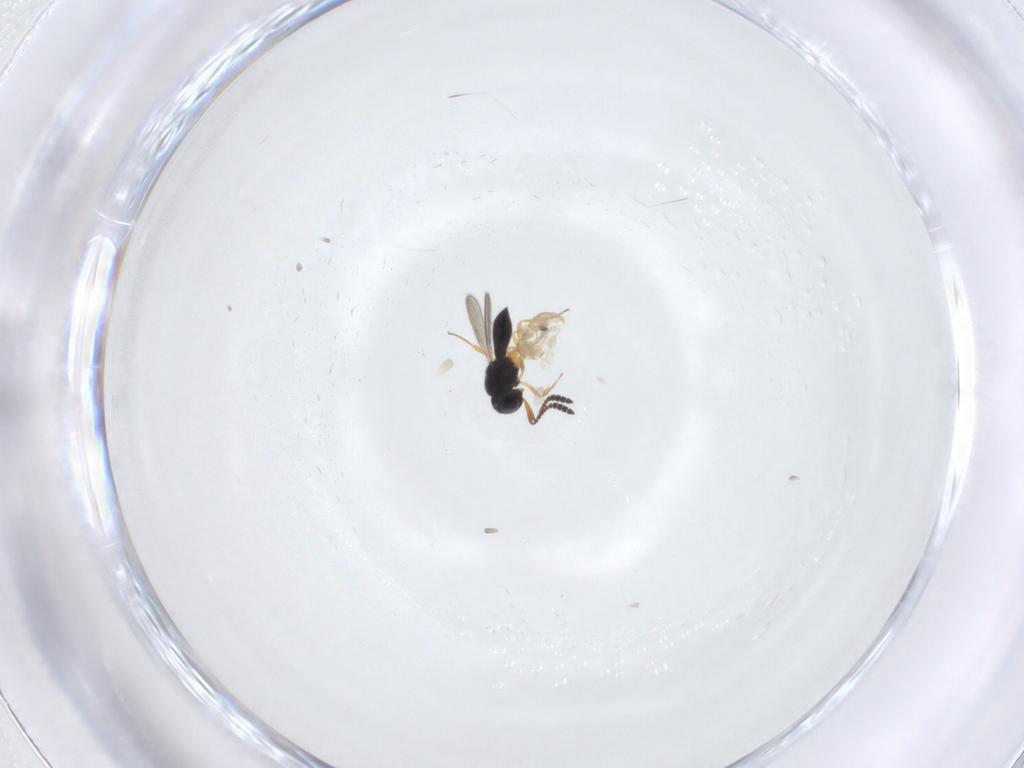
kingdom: Animalia
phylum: Arthropoda
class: Insecta
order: Hymenoptera
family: Scelionidae
